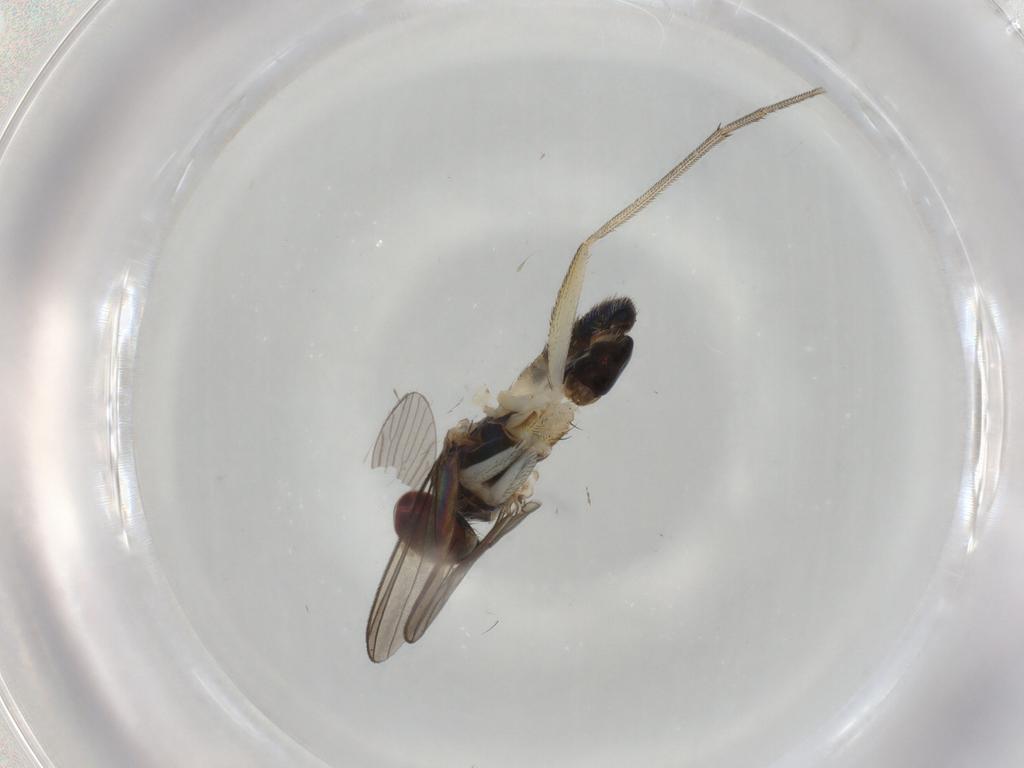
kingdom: Animalia
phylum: Arthropoda
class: Insecta
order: Diptera
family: Dolichopodidae
